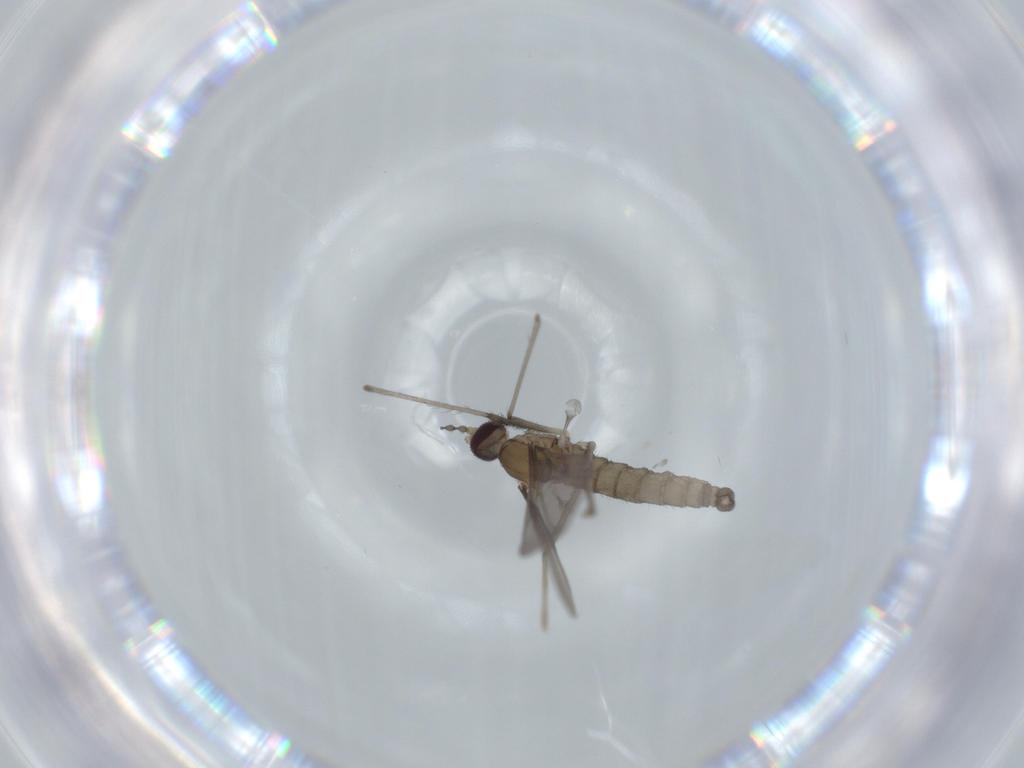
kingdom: Animalia
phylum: Arthropoda
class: Insecta
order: Diptera
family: Cecidomyiidae
